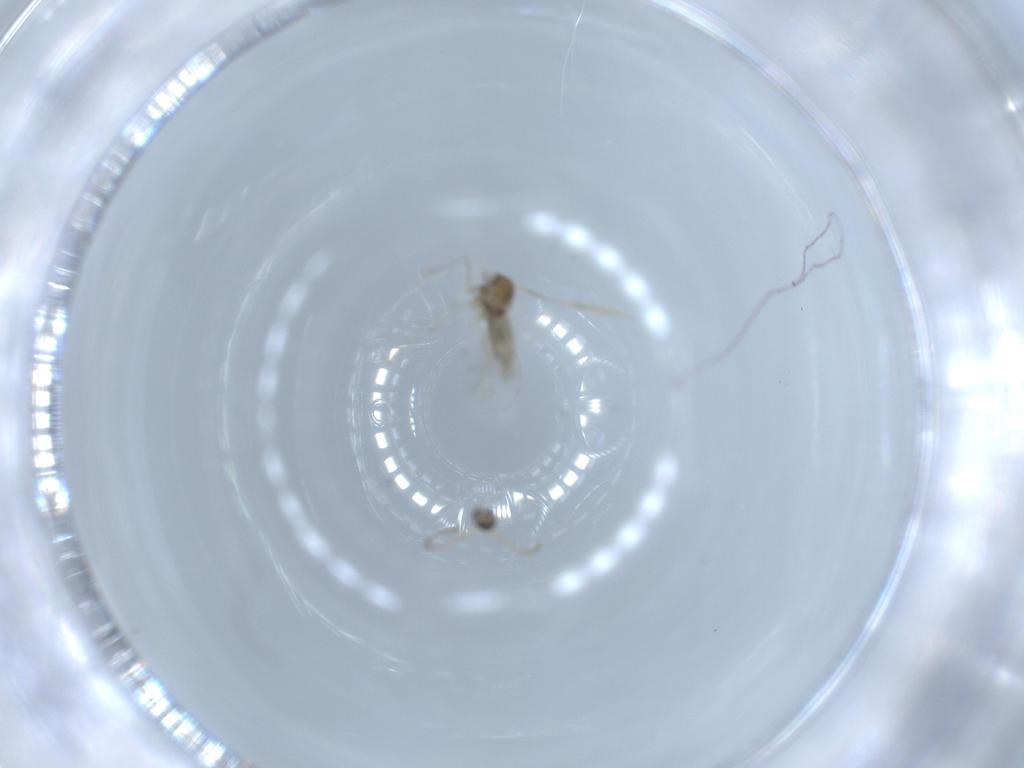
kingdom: Animalia
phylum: Arthropoda
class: Insecta
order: Diptera
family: Cecidomyiidae
